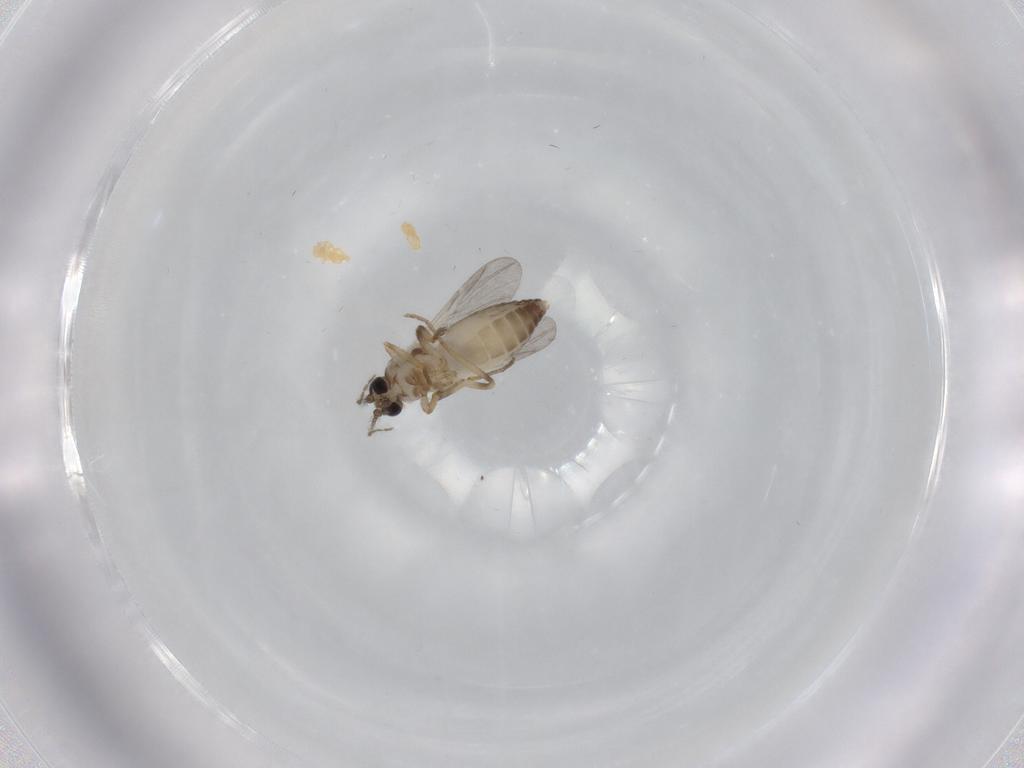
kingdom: Animalia
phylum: Arthropoda
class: Insecta
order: Diptera
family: Ceratopogonidae
